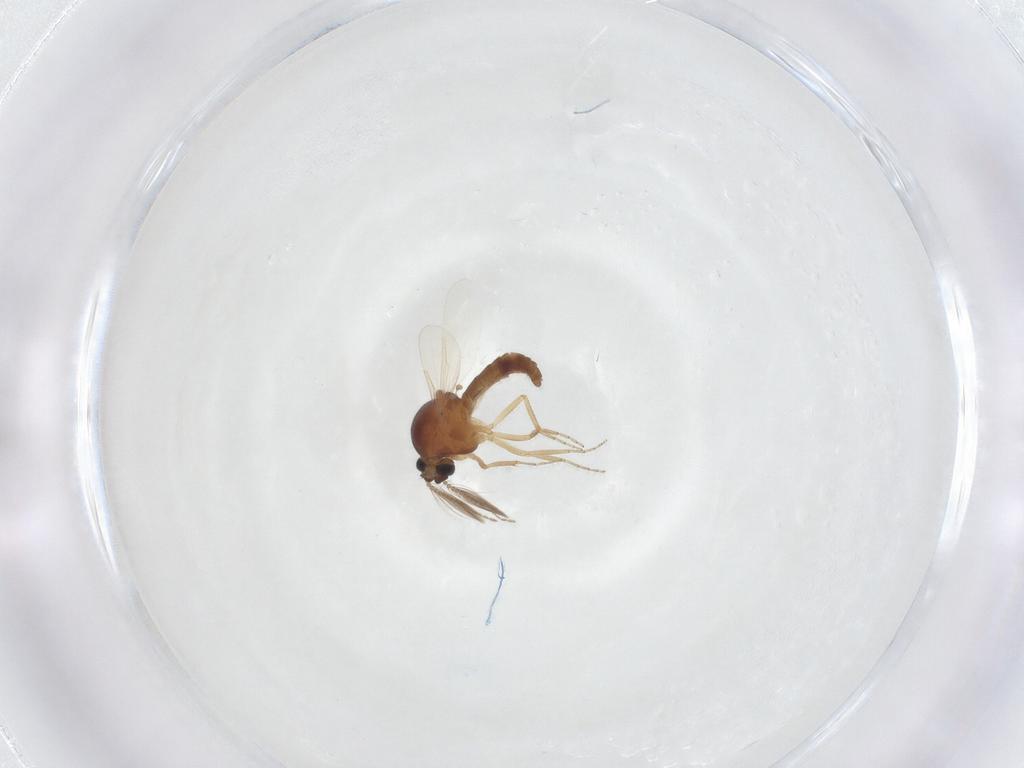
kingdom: Animalia
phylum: Arthropoda
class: Insecta
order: Diptera
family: Ceratopogonidae
